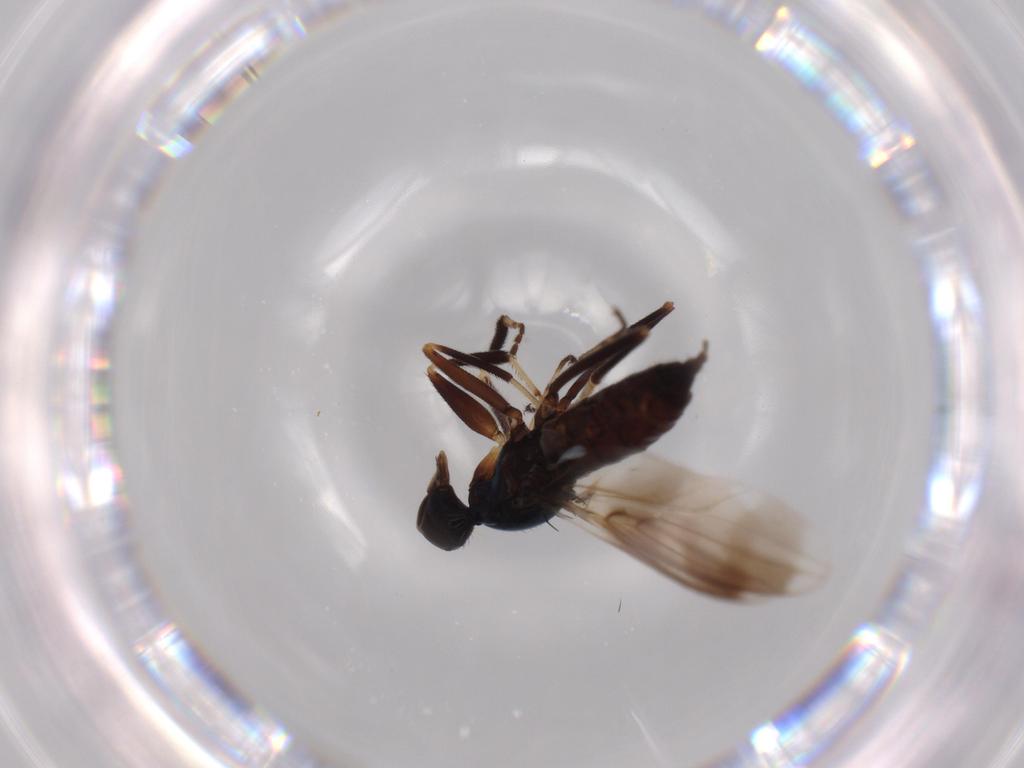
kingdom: Animalia
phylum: Arthropoda
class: Insecta
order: Diptera
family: Hybotidae
